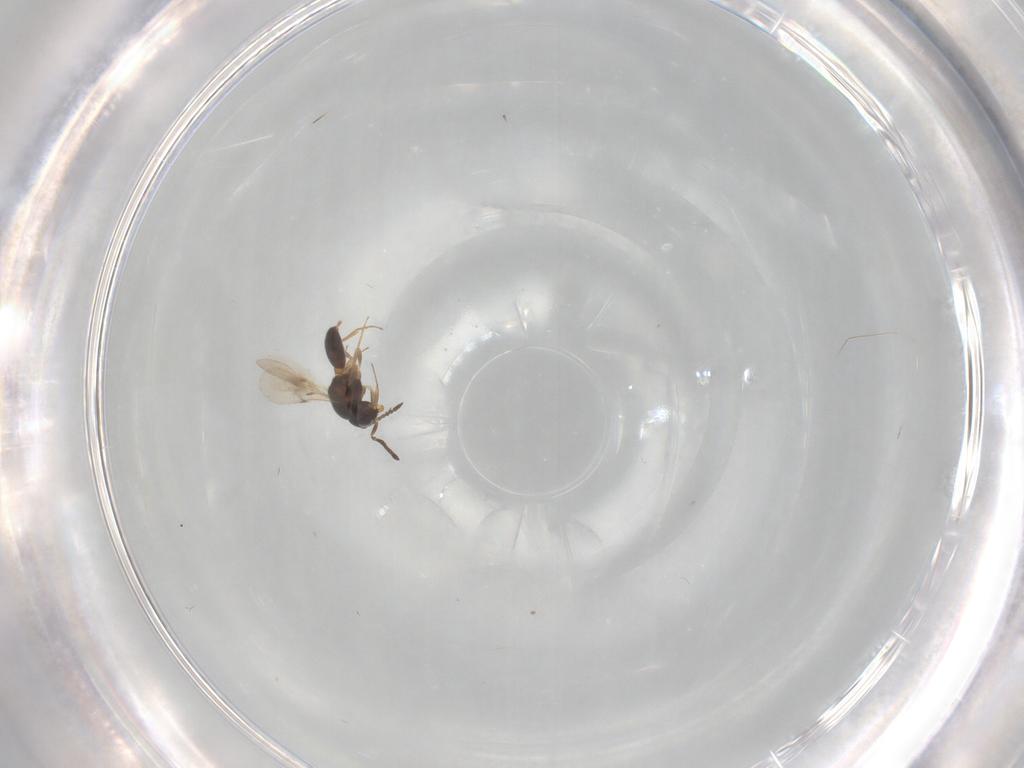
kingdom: Animalia
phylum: Arthropoda
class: Insecta
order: Hymenoptera
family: Scelionidae
